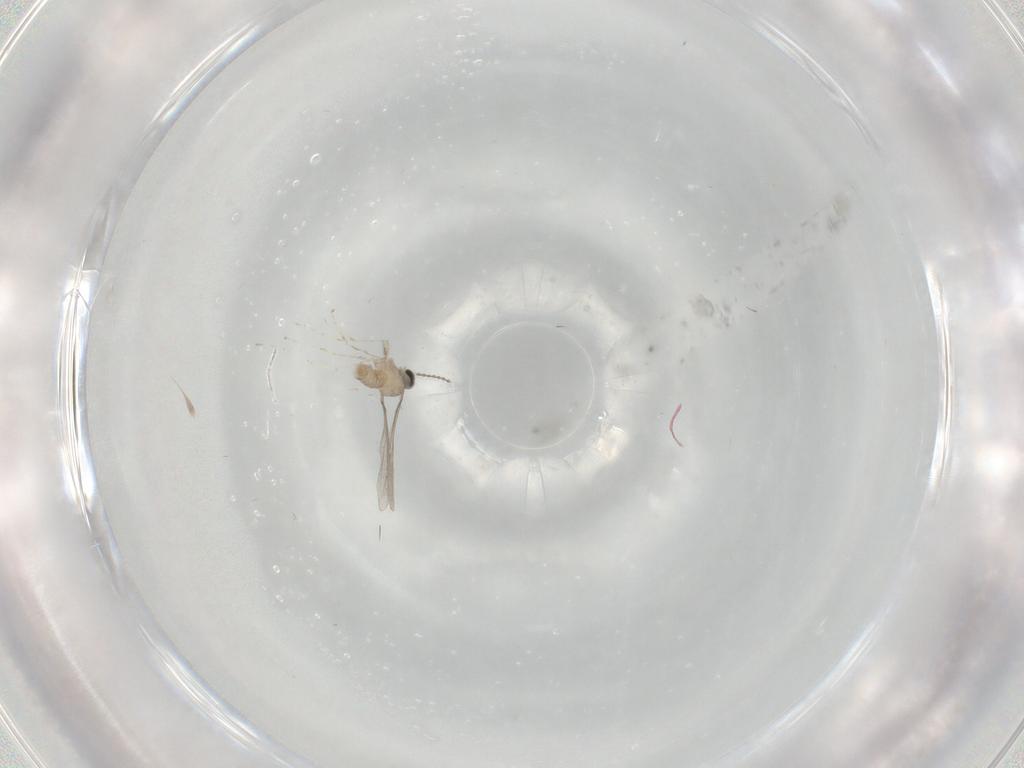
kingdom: Animalia
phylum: Arthropoda
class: Insecta
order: Diptera
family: Cecidomyiidae
